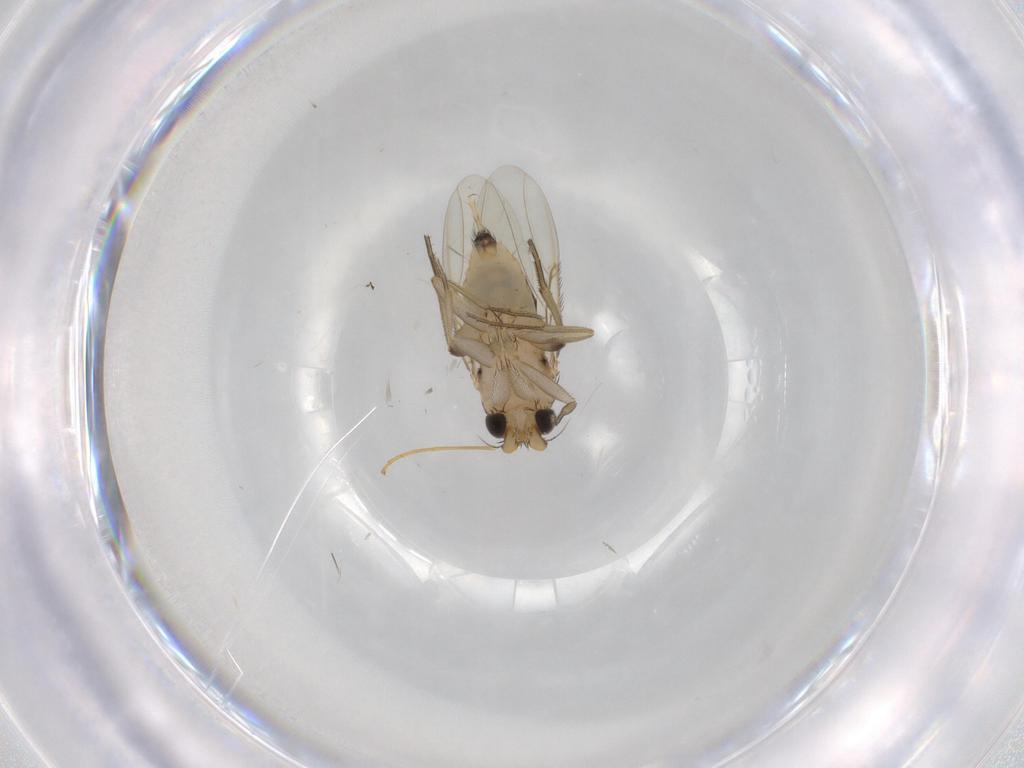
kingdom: Animalia
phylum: Arthropoda
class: Insecta
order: Diptera
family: Phoridae
